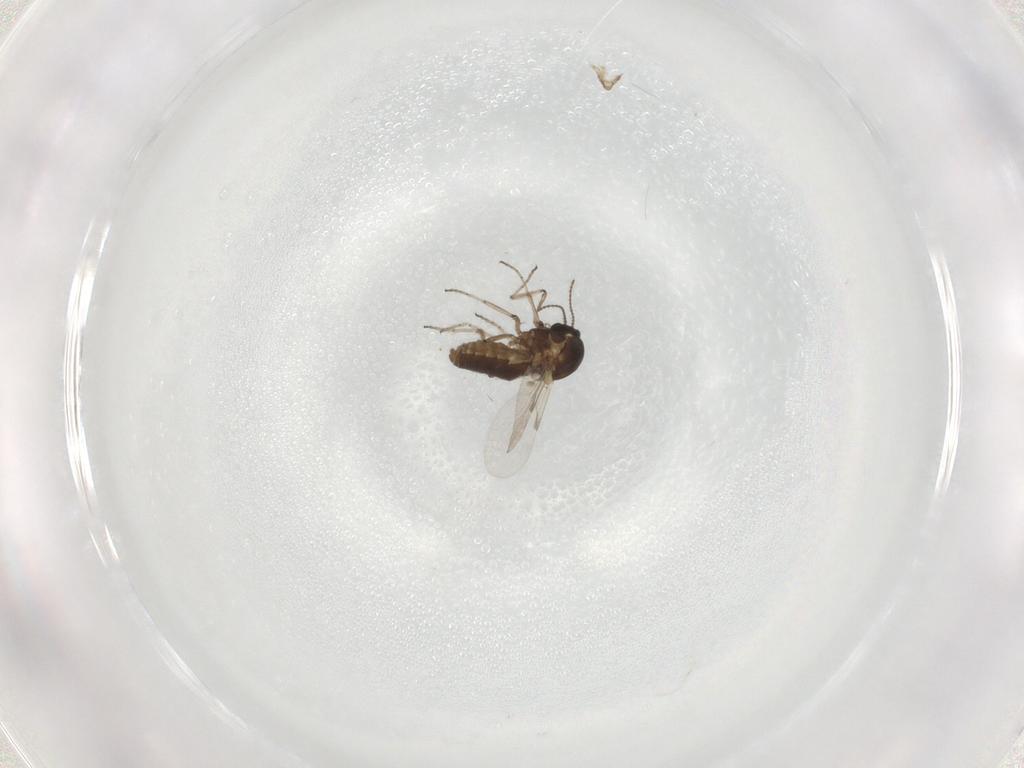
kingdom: Animalia
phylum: Arthropoda
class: Insecta
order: Diptera
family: Ceratopogonidae
